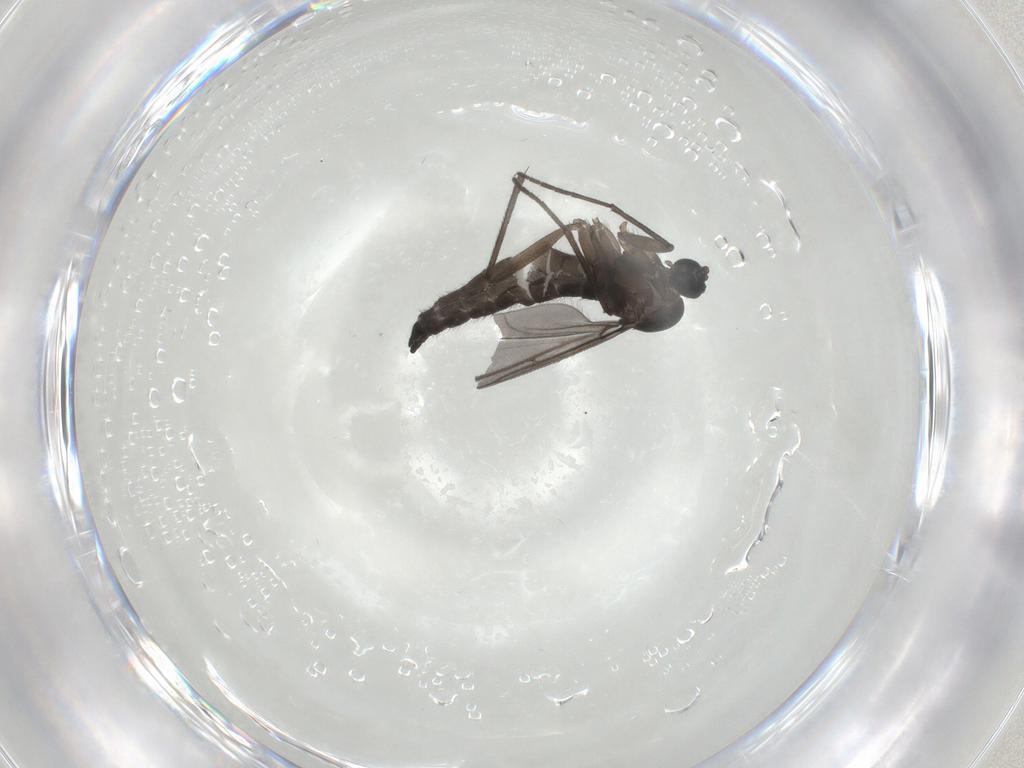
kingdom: Animalia
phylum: Arthropoda
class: Insecta
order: Diptera
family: Sciaridae
